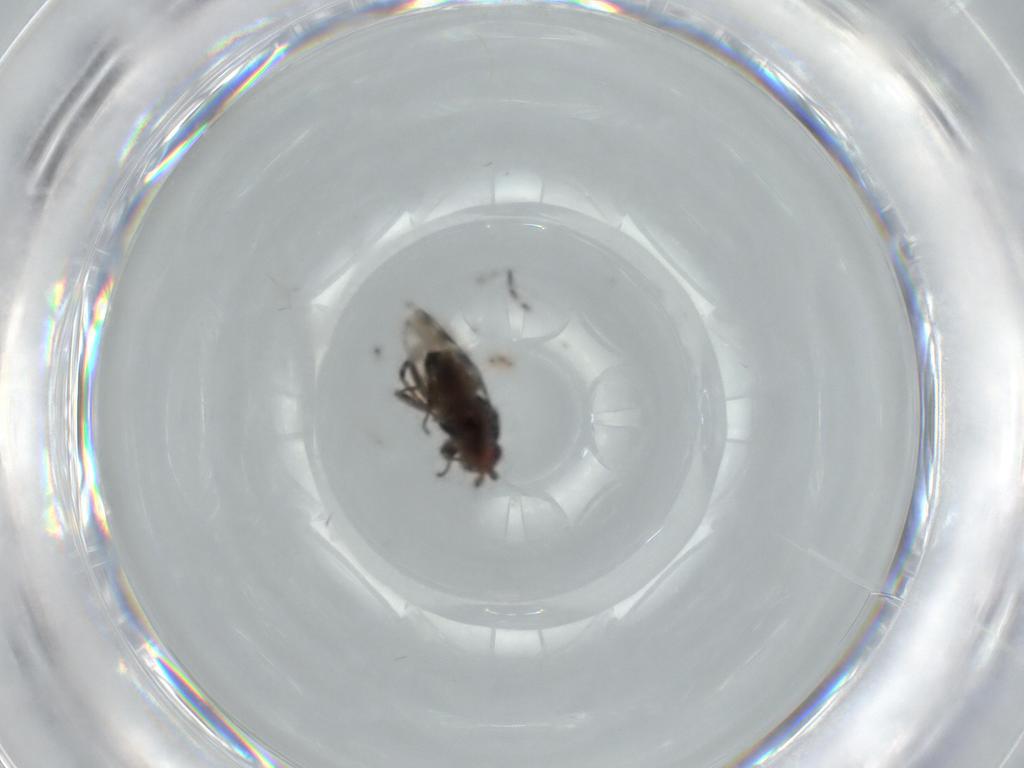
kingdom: Animalia
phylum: Arthropoda
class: Insecta
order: Diptera
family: Sphaeroceridae
